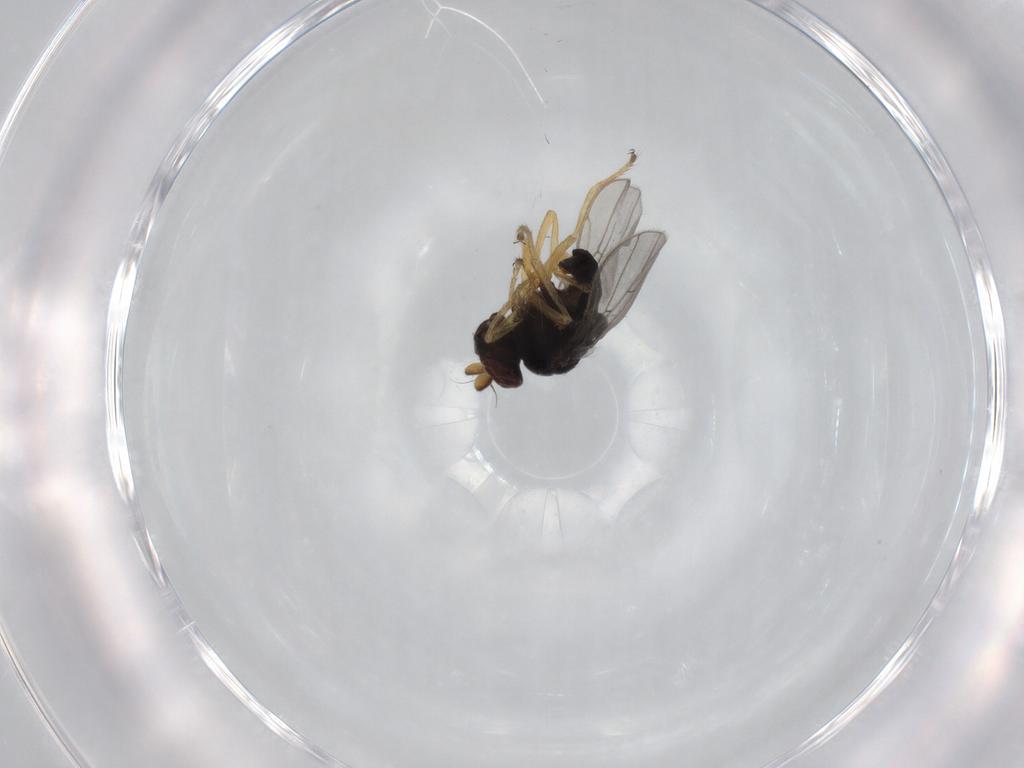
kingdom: Animalia
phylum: Arthropoda
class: Insecta
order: Diptera
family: Ephydridae
